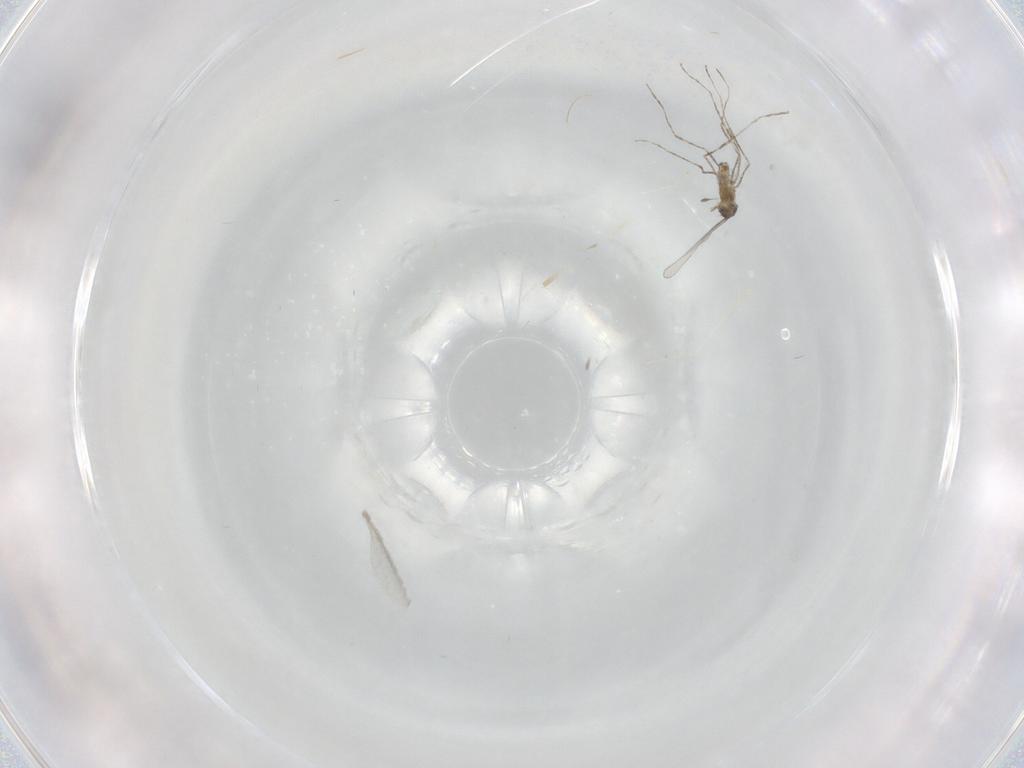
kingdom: Animalia
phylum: Arthropoda
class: Insecta
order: Diptera
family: Cecidomyiidae
